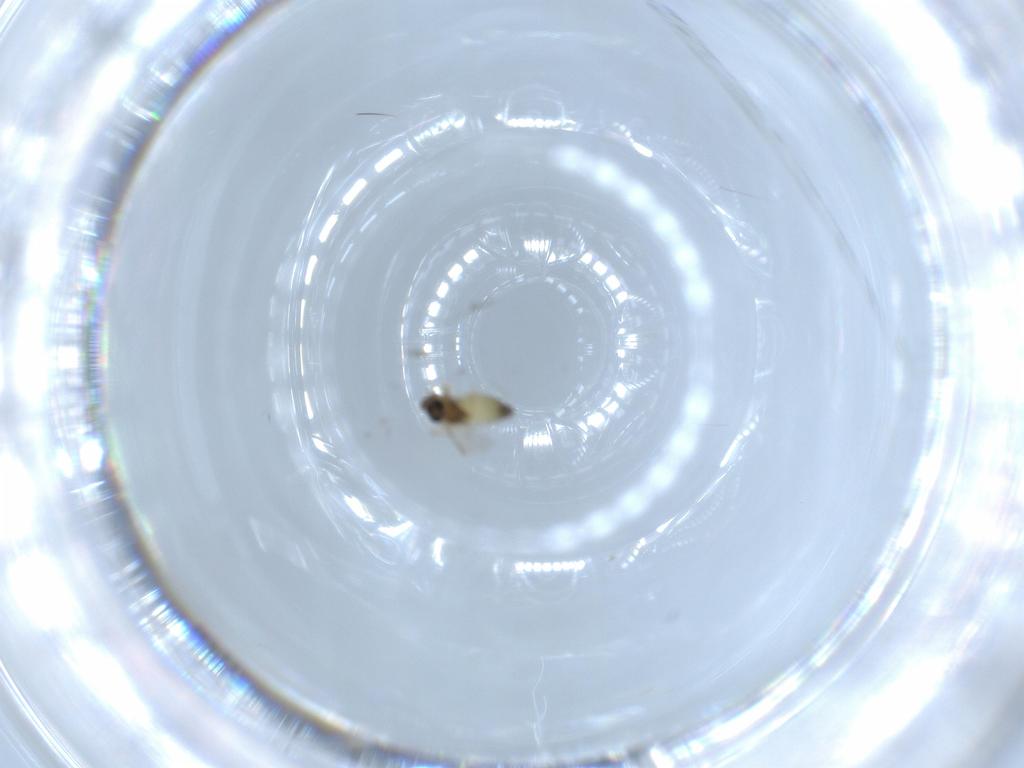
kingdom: Animalia
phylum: Arthropoda
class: Insecta
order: Diptera
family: Chironomidae
